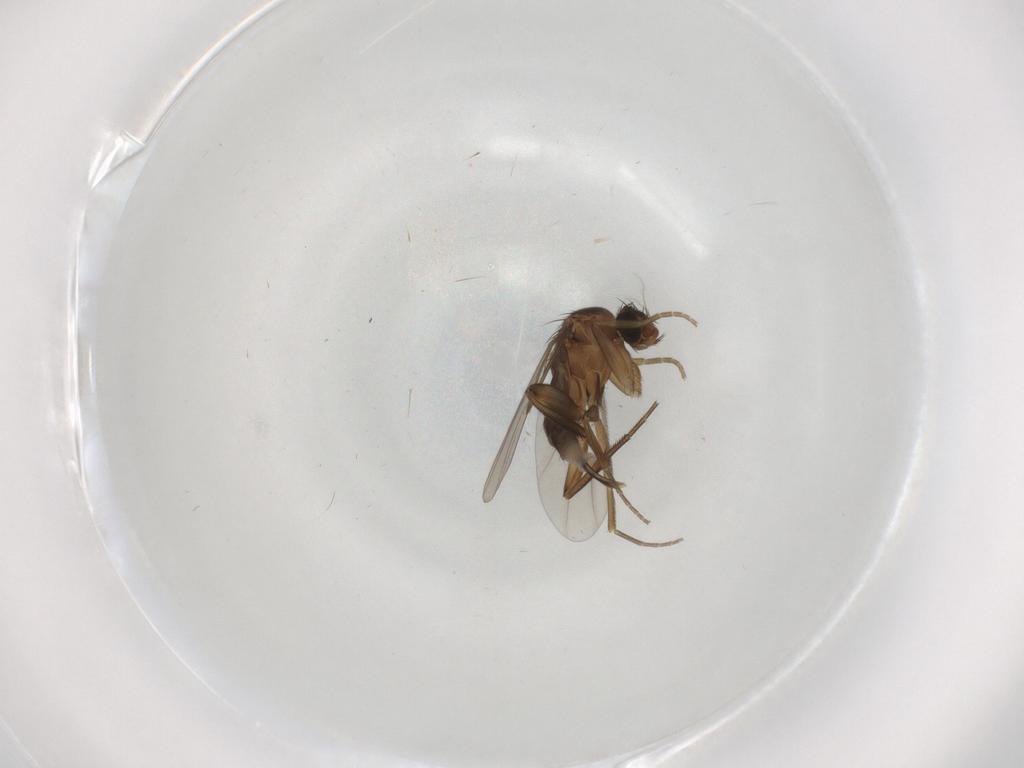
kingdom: Animalia
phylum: Arthropoda
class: Insecta
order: Diptera
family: Phoridae
